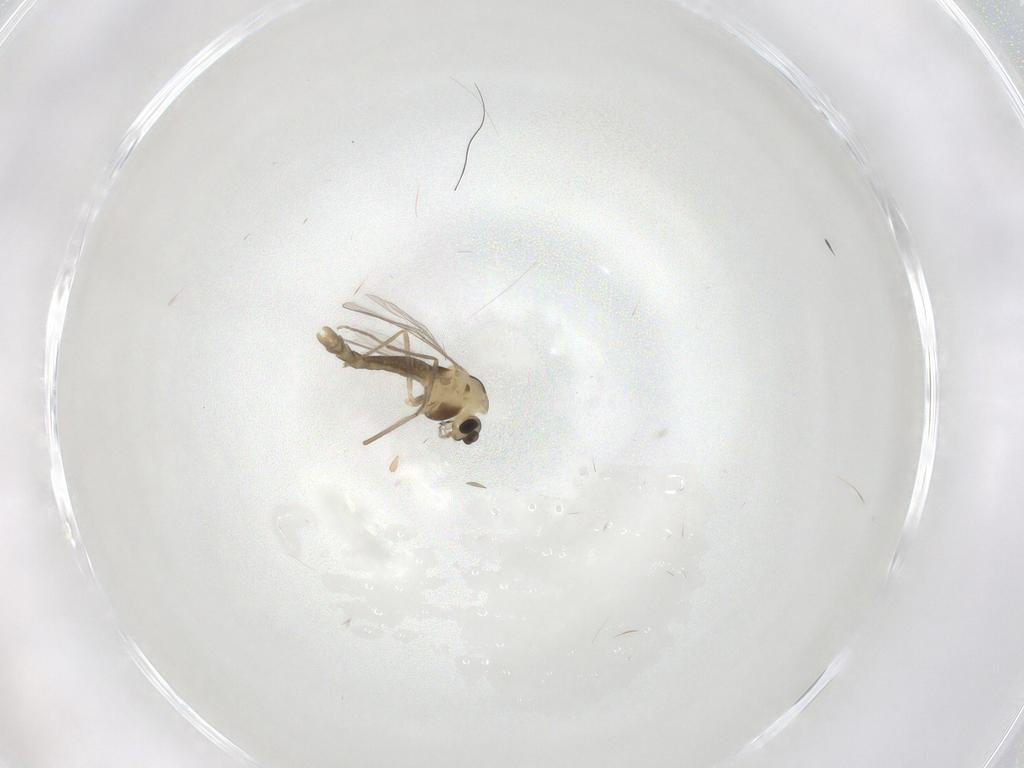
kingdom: Animalia
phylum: Arthropoda
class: Insecta
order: Diptera
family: Chironomidae
